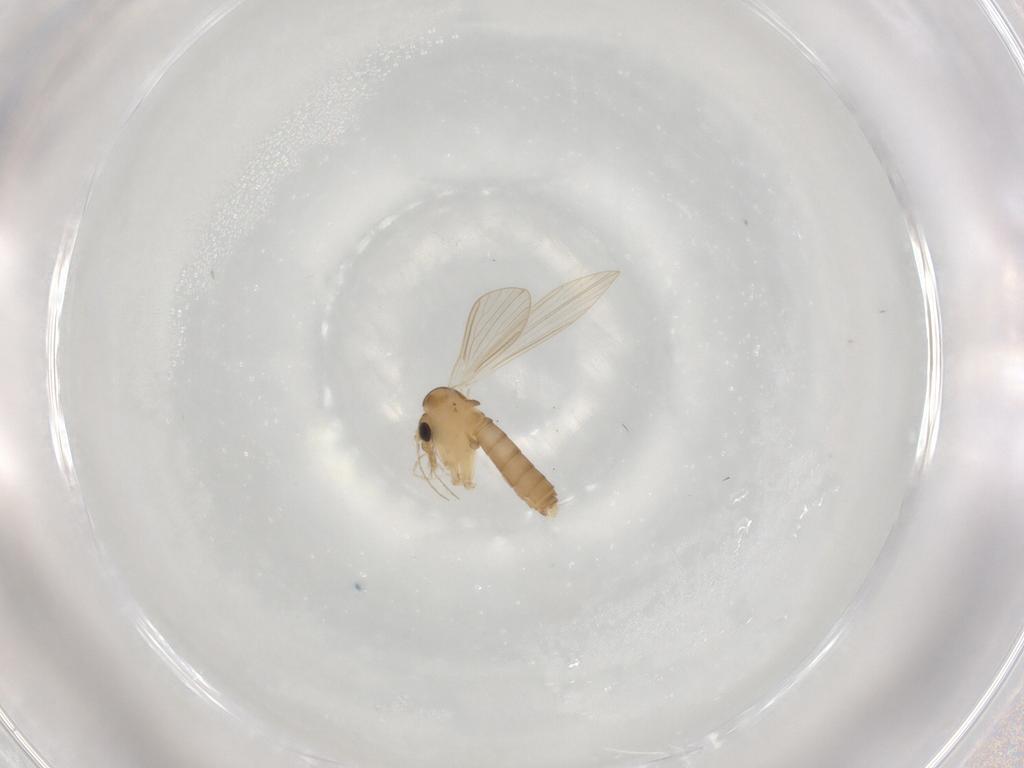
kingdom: Animalia
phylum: Arthropoda
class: Insecta
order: Diptera
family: Psychodidae
